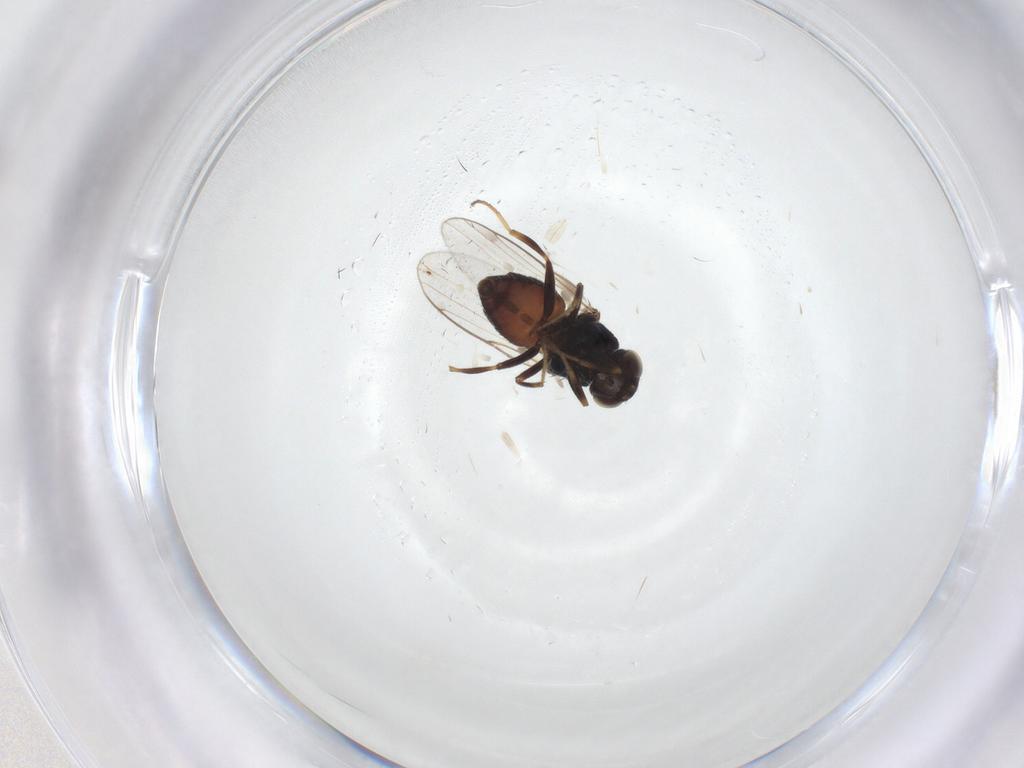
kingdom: Animalia
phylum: Arthropoda
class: Insecta
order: Diptera
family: Chloropidae
